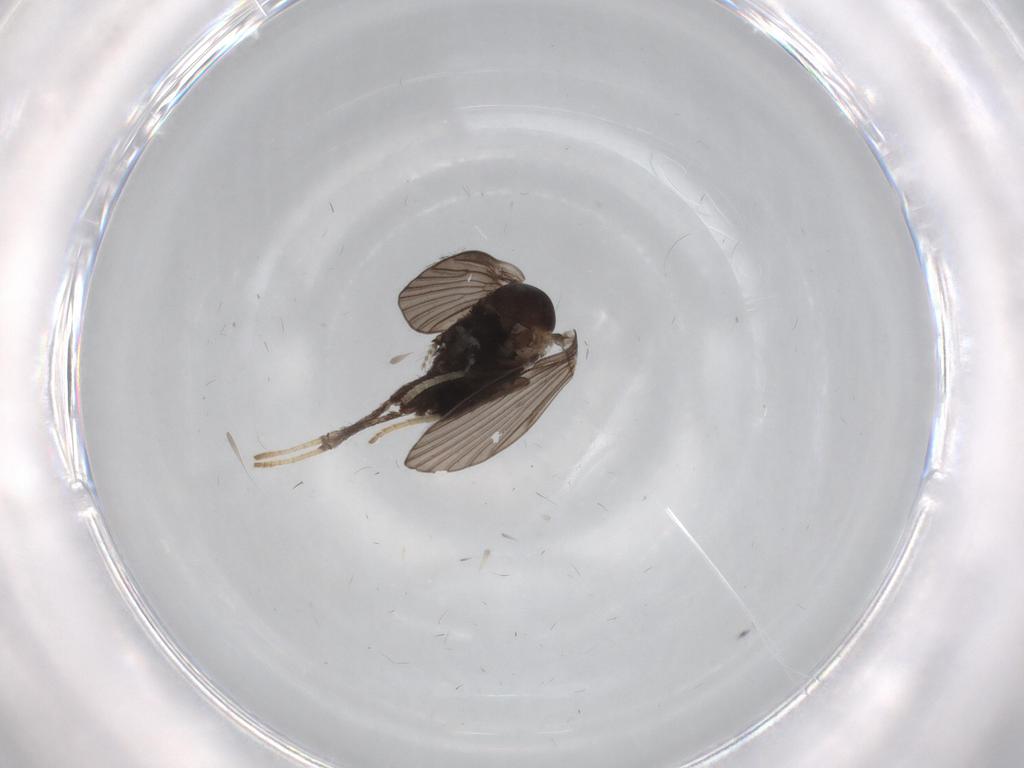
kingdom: Animalia
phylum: Arthropoda
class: Insecta
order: Diptera
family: Psychodidae
